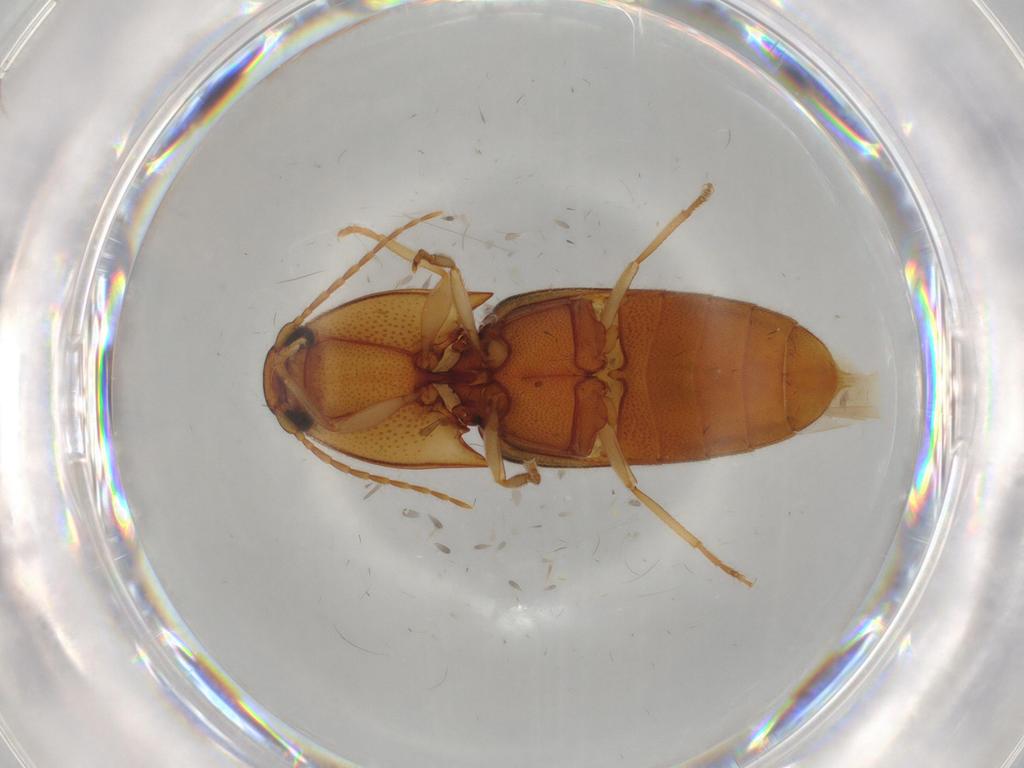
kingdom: Animalia
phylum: Arthropoda
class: Insecta
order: Coleoptera
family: Elateridae
